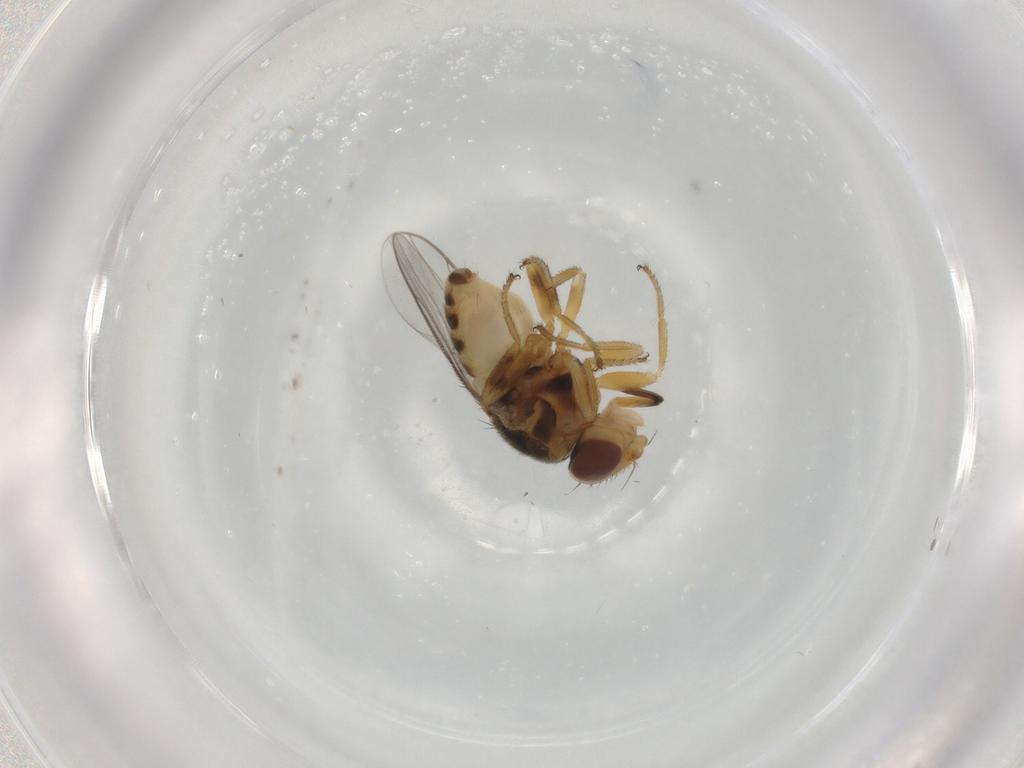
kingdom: Animalia
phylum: Arthropoda
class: Insecta
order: Diptera
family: Chloropidae
